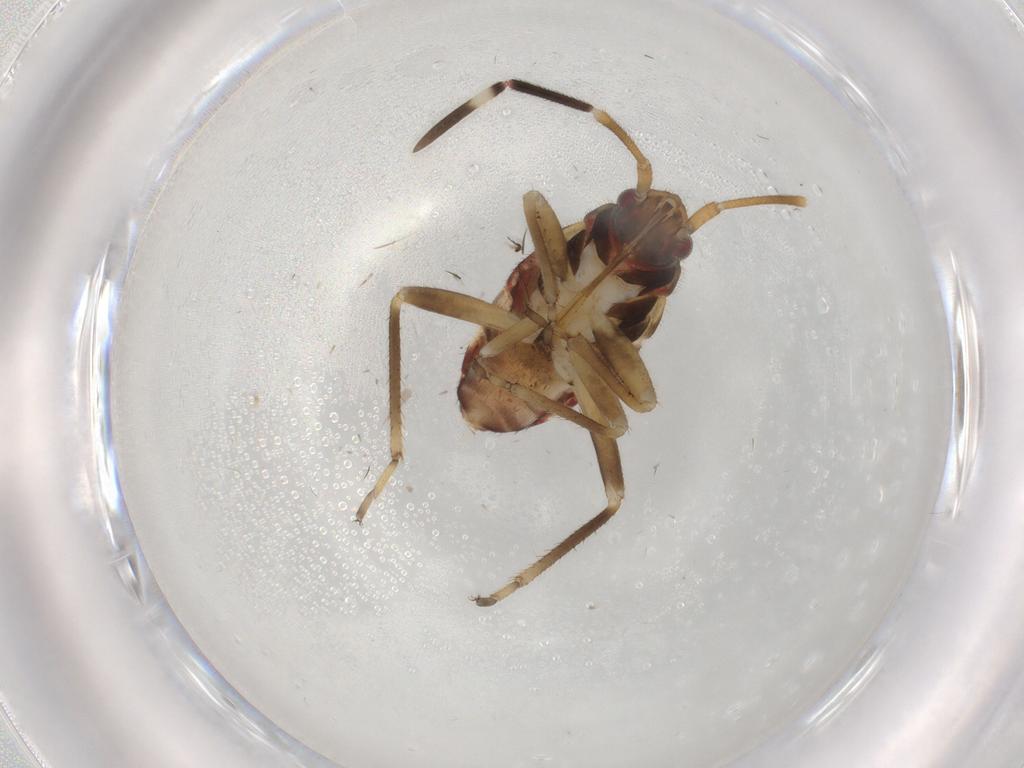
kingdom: Animalia
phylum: Arthropoda
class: Insecta
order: Hemiptera
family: Rhyparochromidae
